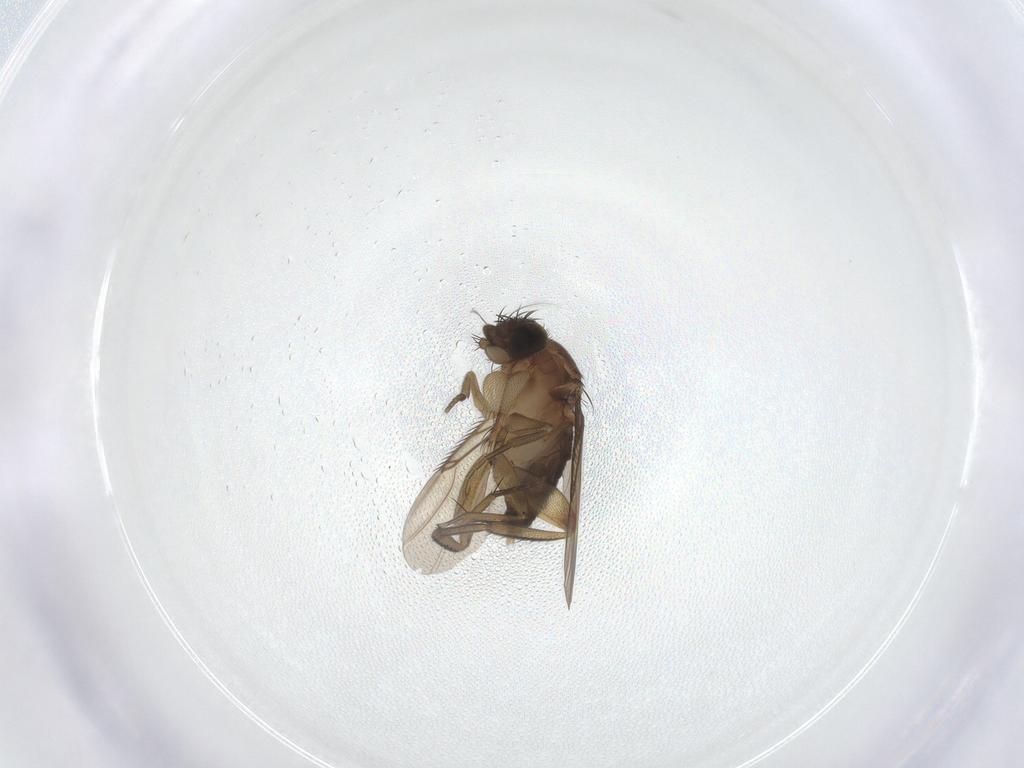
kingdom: Animalia
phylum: Arthropoda
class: Insecta
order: Diptera
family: Phoridae
